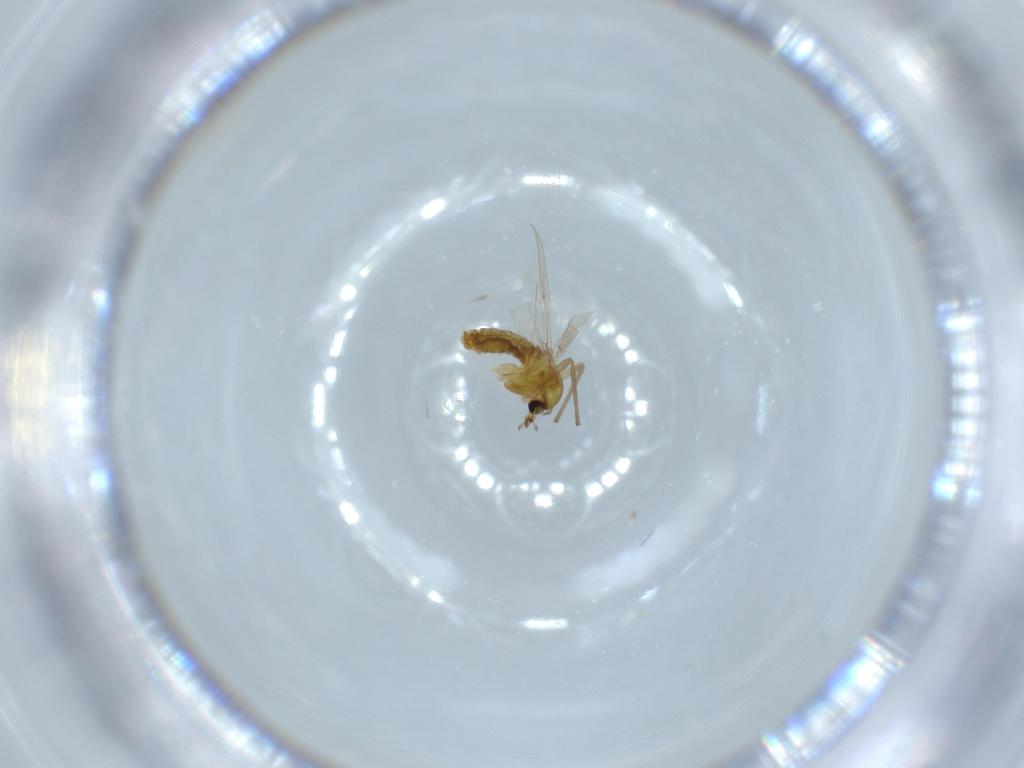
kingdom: Animalia
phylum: Arthropoda
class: Insecta
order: Diptera
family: Chironomidae
